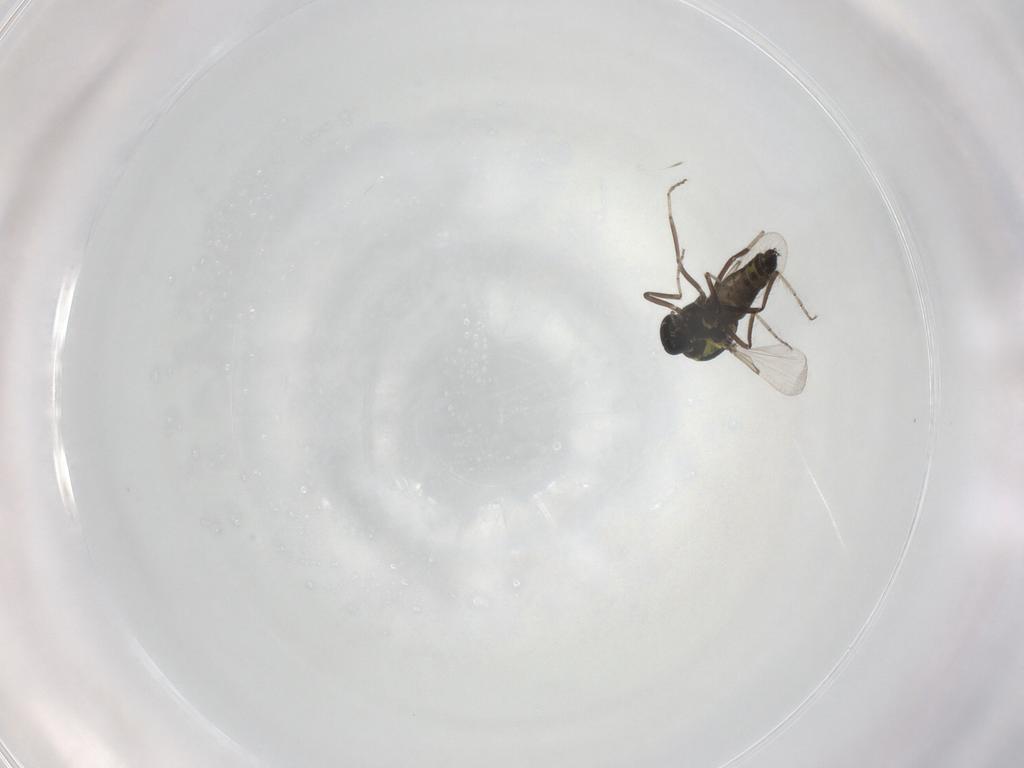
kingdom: Animalia
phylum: Arthropoda
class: Insecta
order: Diptera
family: Ceratopogonidae
